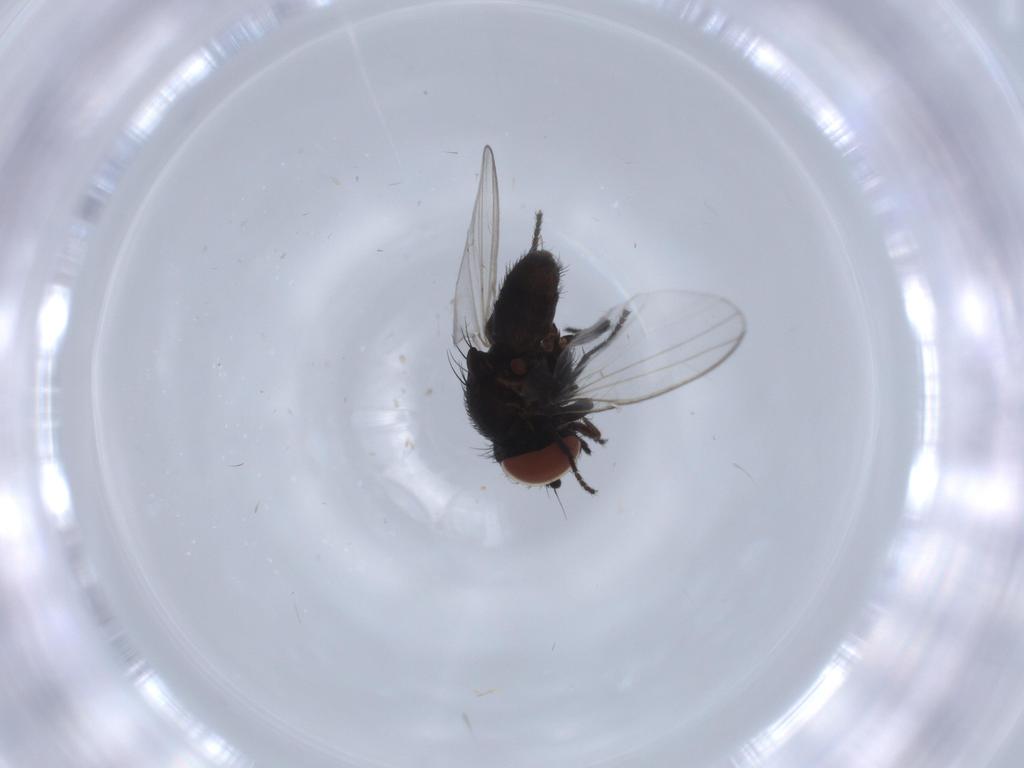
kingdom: Animalia
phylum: Arthropoda
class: Insecta
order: Diptera
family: Milichiidae
